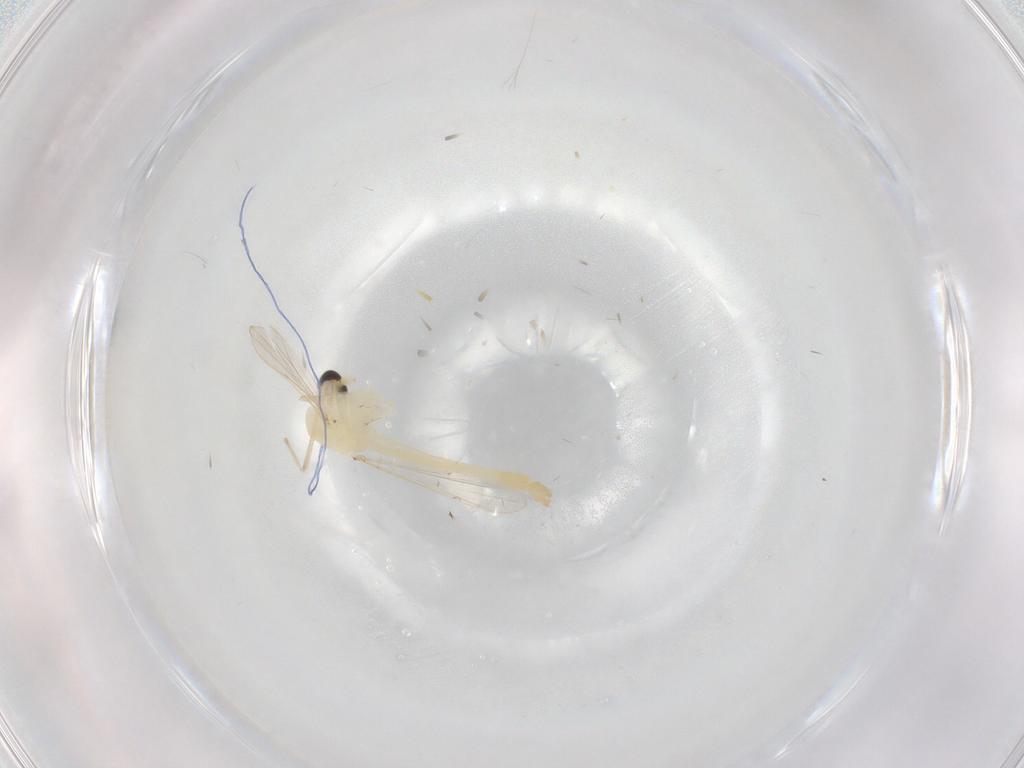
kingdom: Animalia
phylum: Arthropoda
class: Insecta
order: Diptera
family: Chironomidae
